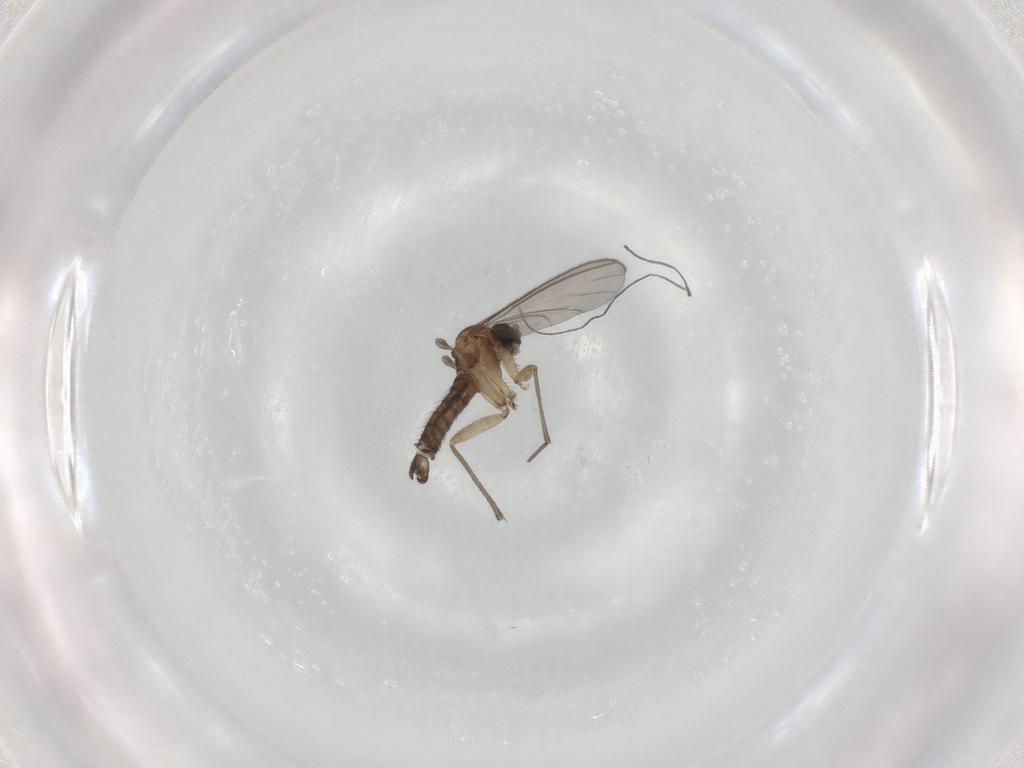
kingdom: Animalia
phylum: Arthropoda
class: Insecta
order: Diptera
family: Sciaridae
